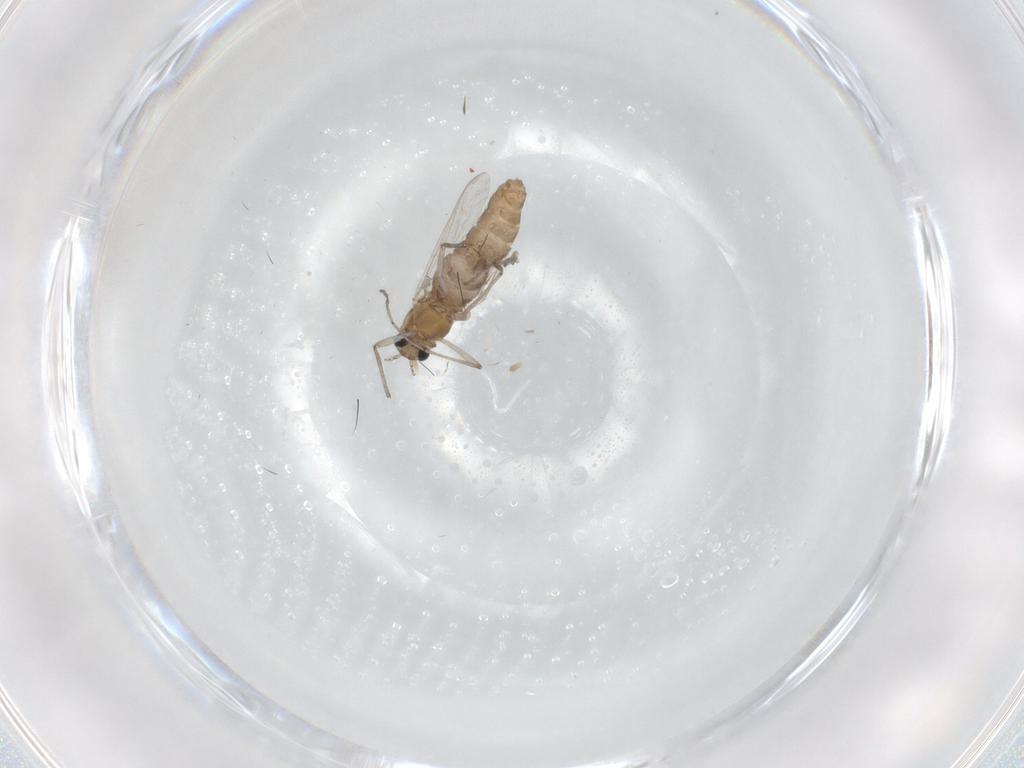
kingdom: Animalia
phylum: Arthropoda
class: Insecta
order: Diptera
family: Chironomidae
